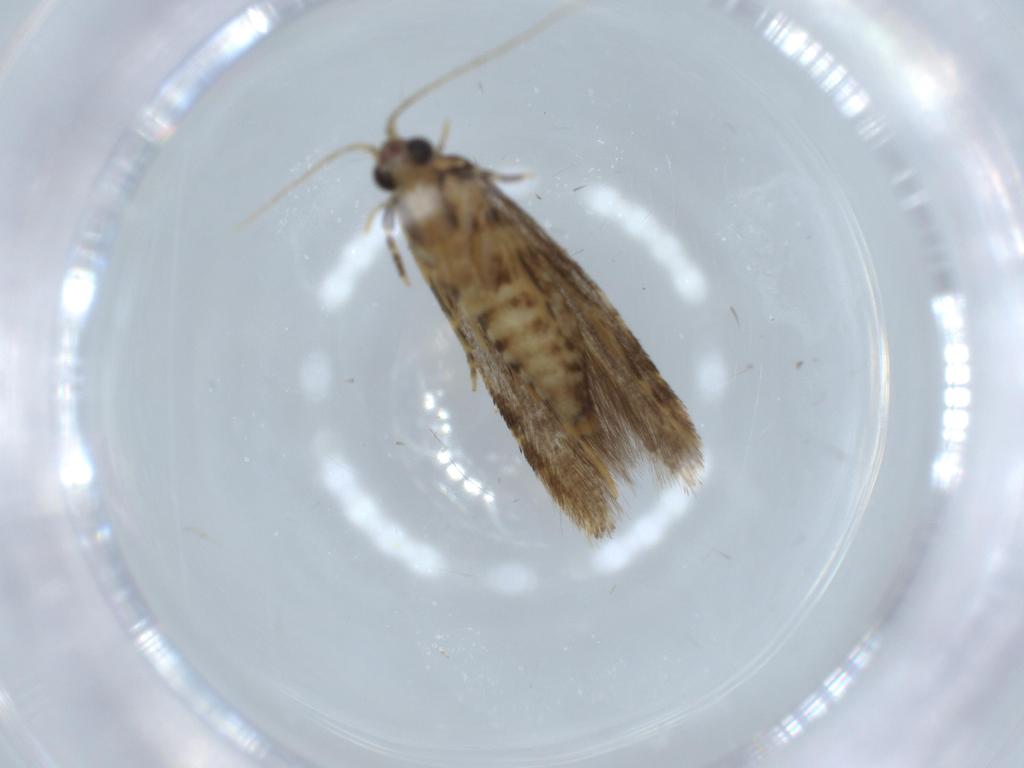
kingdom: Animalia
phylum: Arthropoda
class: Insecta
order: Lepidoptera
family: Tineidae
